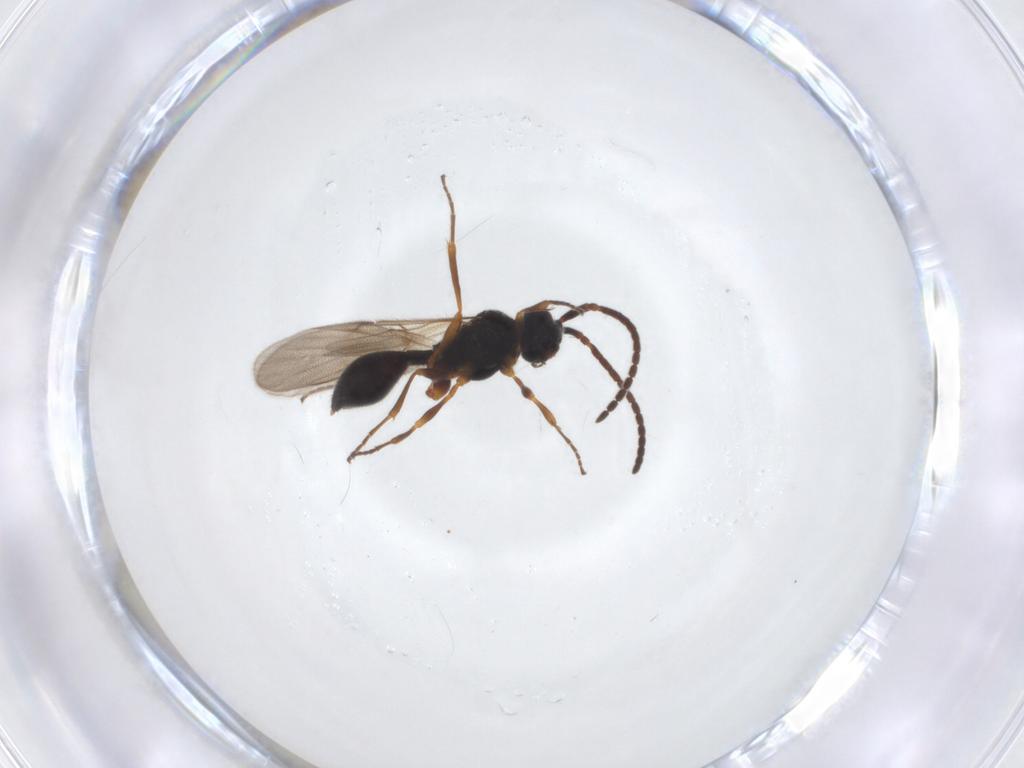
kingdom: Animalia
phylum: Arthropoda
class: Insecta
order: Hymenoptera
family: Diapriidae
